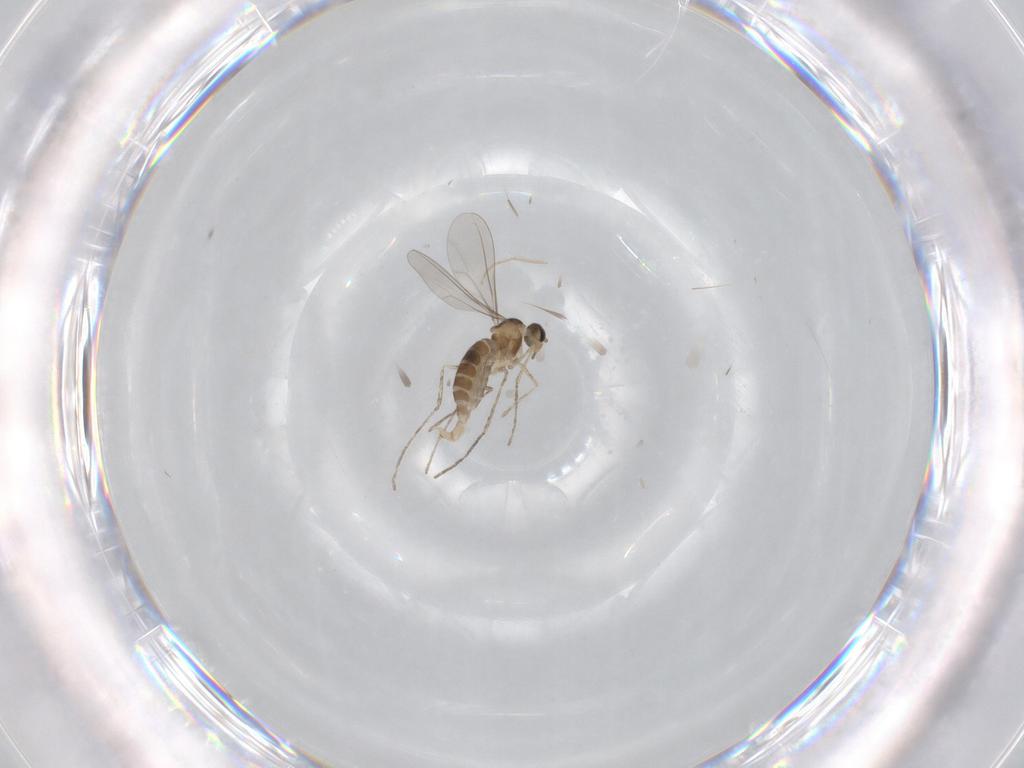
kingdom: Animalia
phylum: Arthropoda
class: Insecta
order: Diptera
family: Cecidomyiidae
